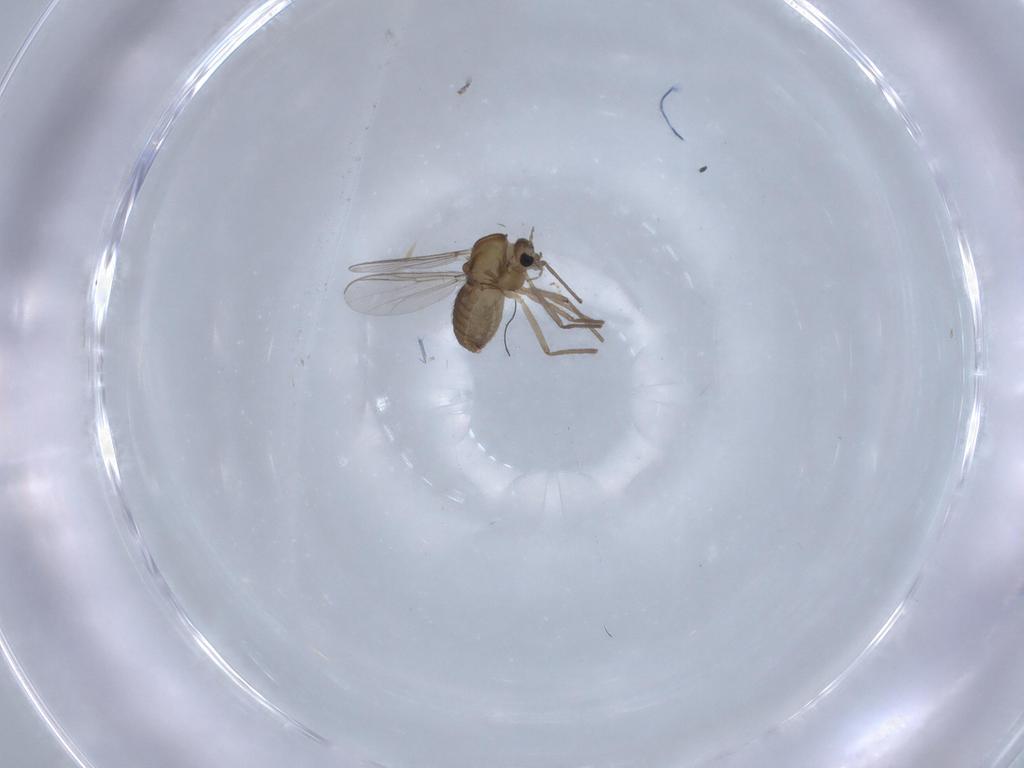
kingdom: Animalia
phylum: Arthropoda
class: Insecta
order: Diptera
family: Chironomidae
